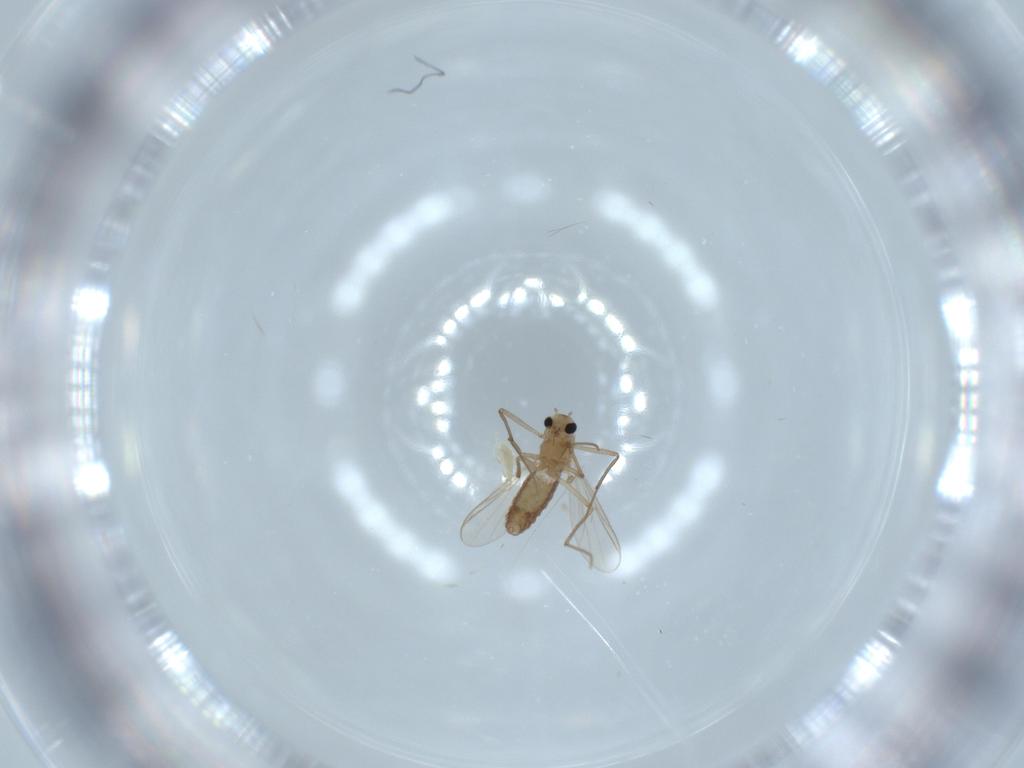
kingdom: Animalia
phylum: Arthropoda
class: Insecta
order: Diptera
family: Chironomidae
